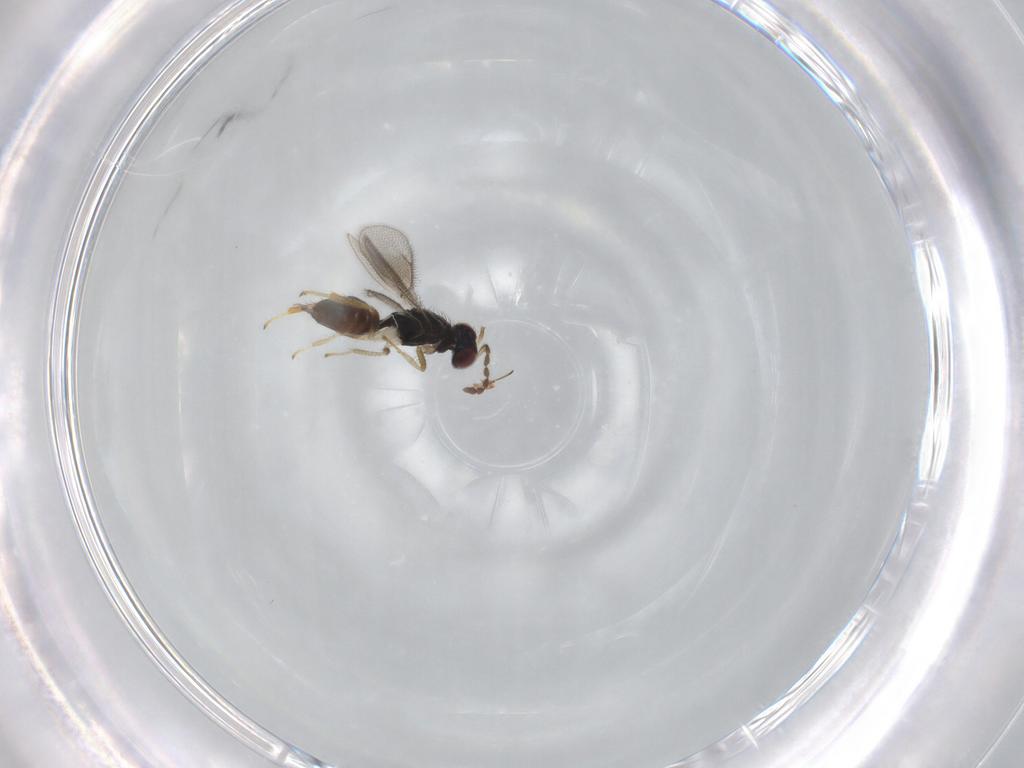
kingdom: Animalia
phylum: Arthropoda
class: Insecta
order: Hymenoptera
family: Eulophidae
